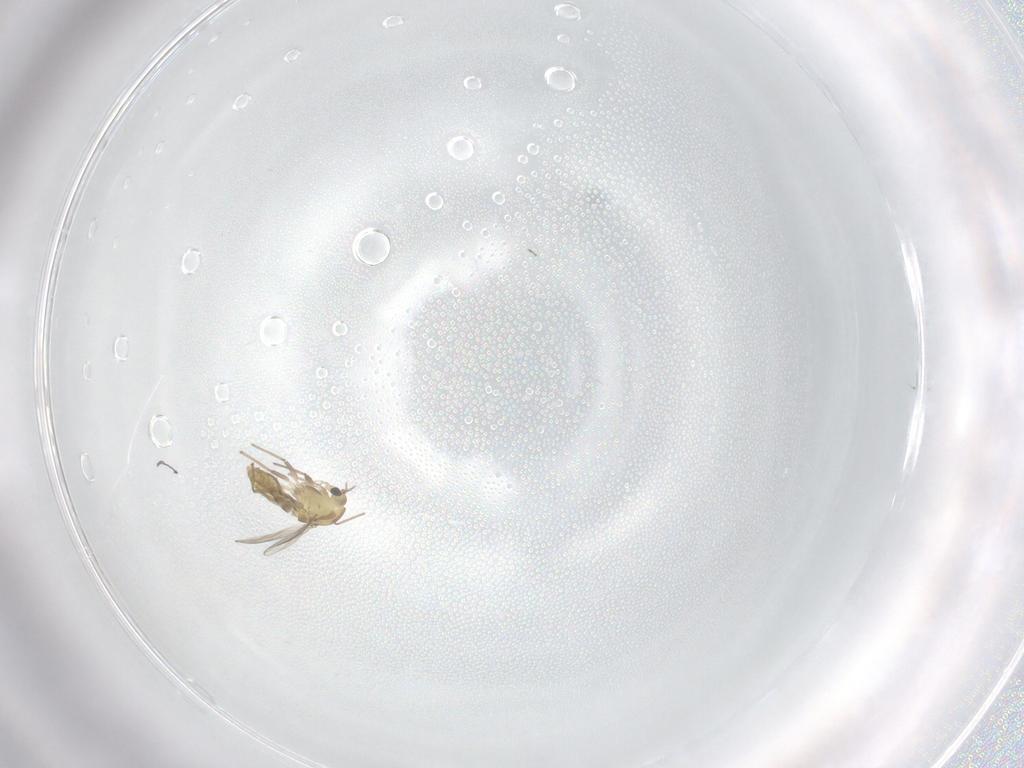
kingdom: Animalia
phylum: Arthropoda
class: Insecta
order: Diptera
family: Chironomidae
